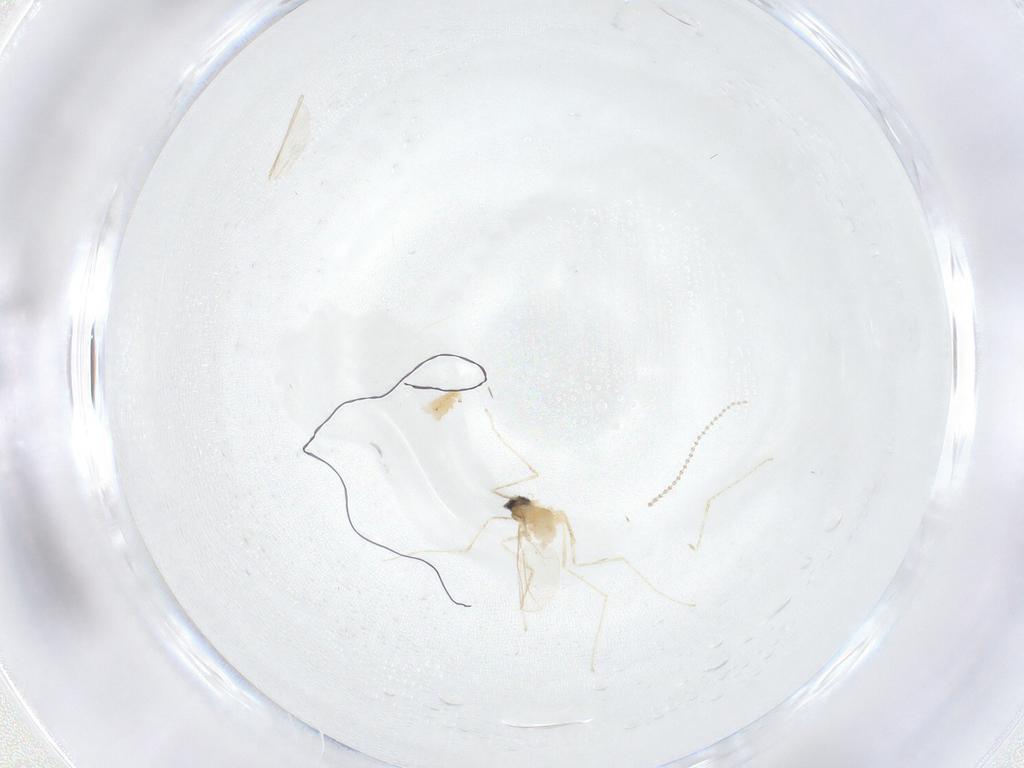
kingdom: Animalia
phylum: Arthropoda
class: Insecta
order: Diptera
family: Cecidomyiidae
